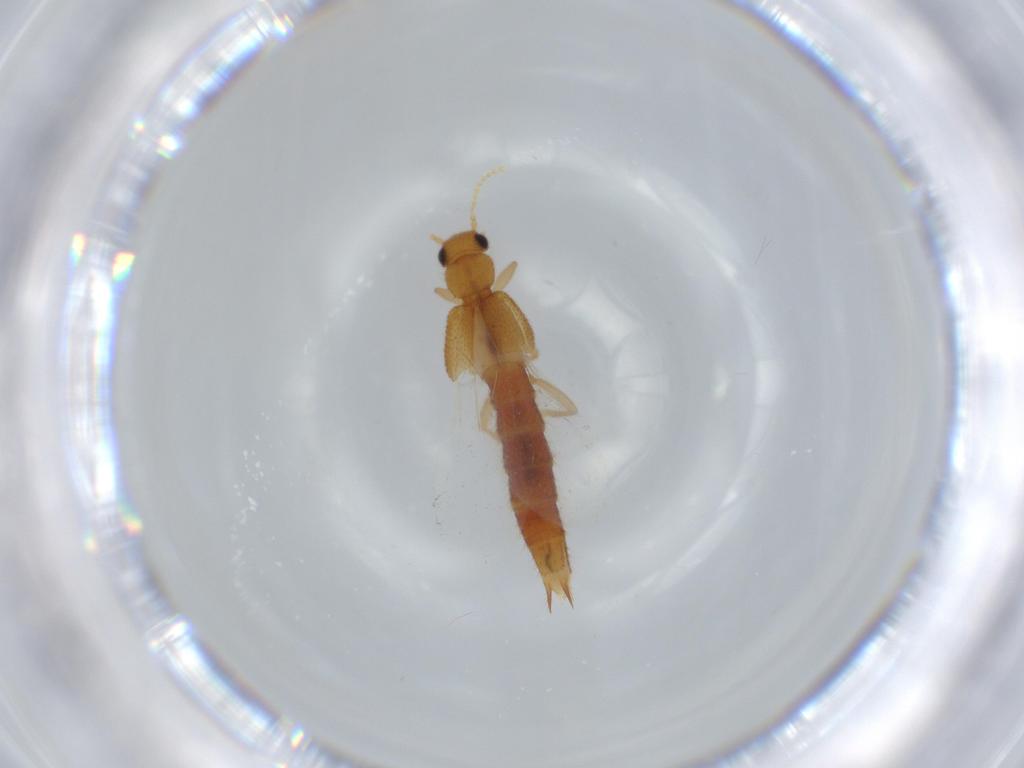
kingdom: Animalia
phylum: Arthropoda
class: Insecta
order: Coleoptera
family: Staphylinidae
